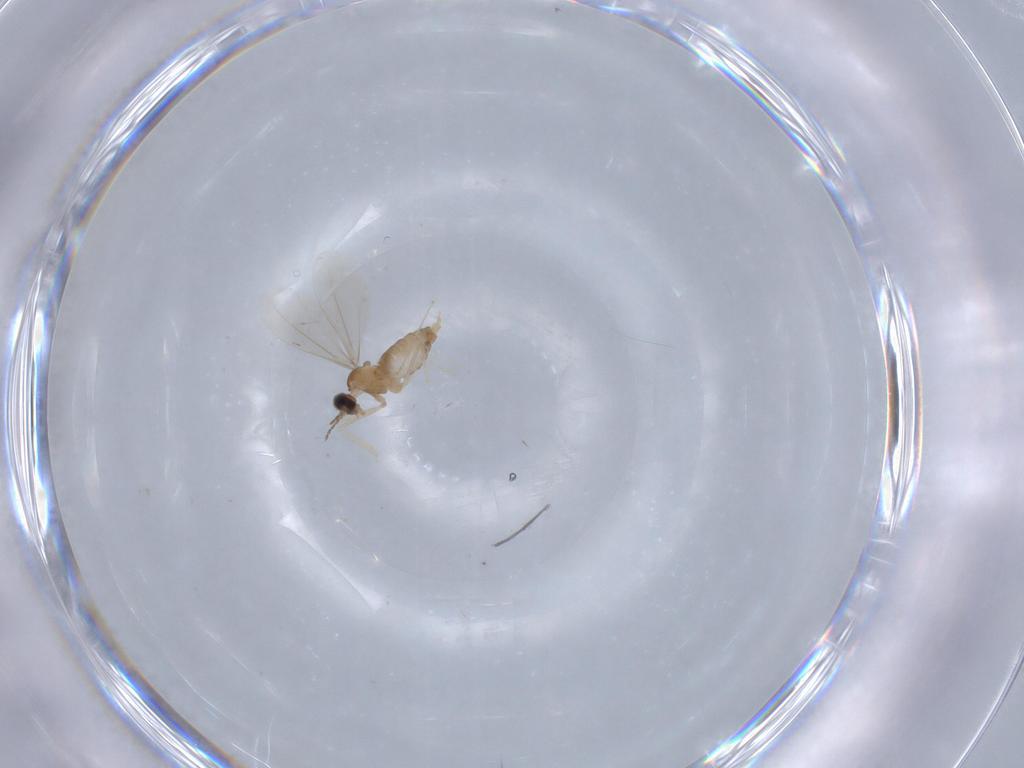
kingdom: Animalia
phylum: Arthropoda
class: Insecta
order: Diptera
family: Cecidomyiidae
